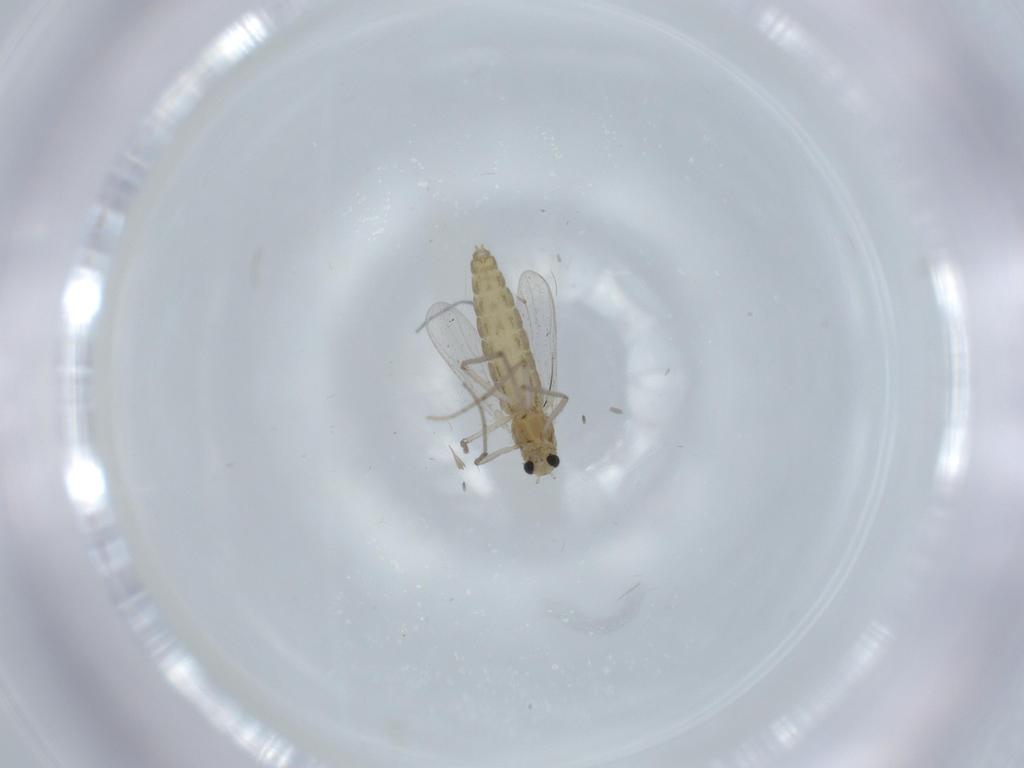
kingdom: Animalia
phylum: Arthropoda
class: Insecta
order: Diptera
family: Chironomidae
